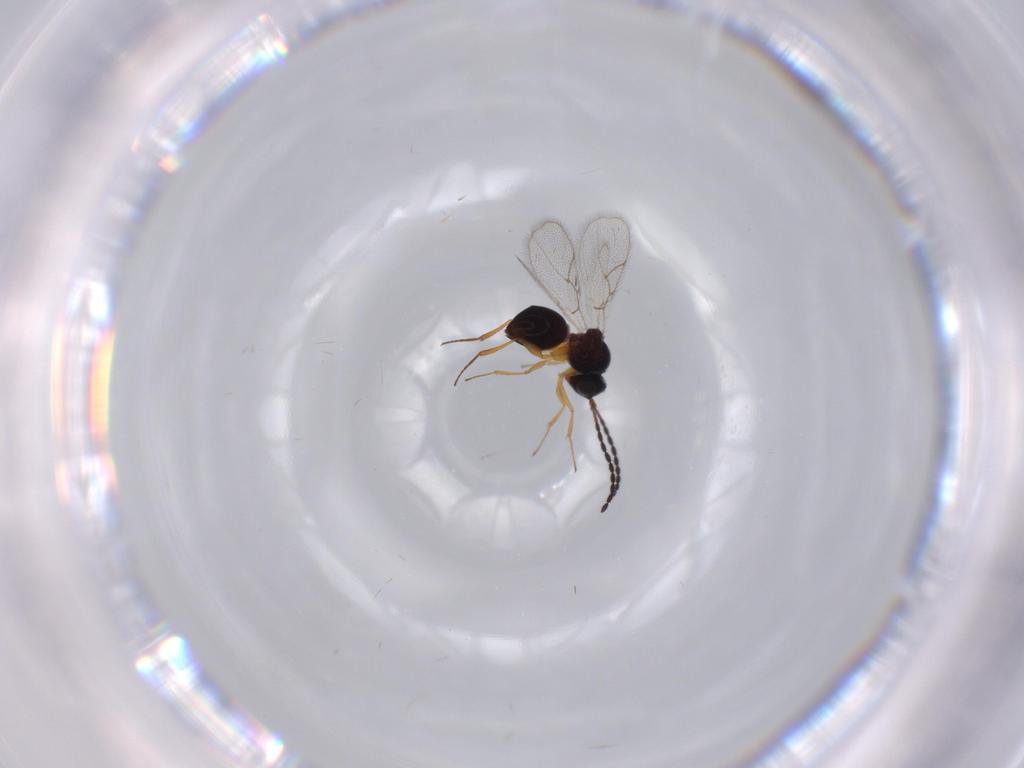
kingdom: Animalia
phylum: Arthropoda
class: Insecta
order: Hymenoptera
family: Figitidae
